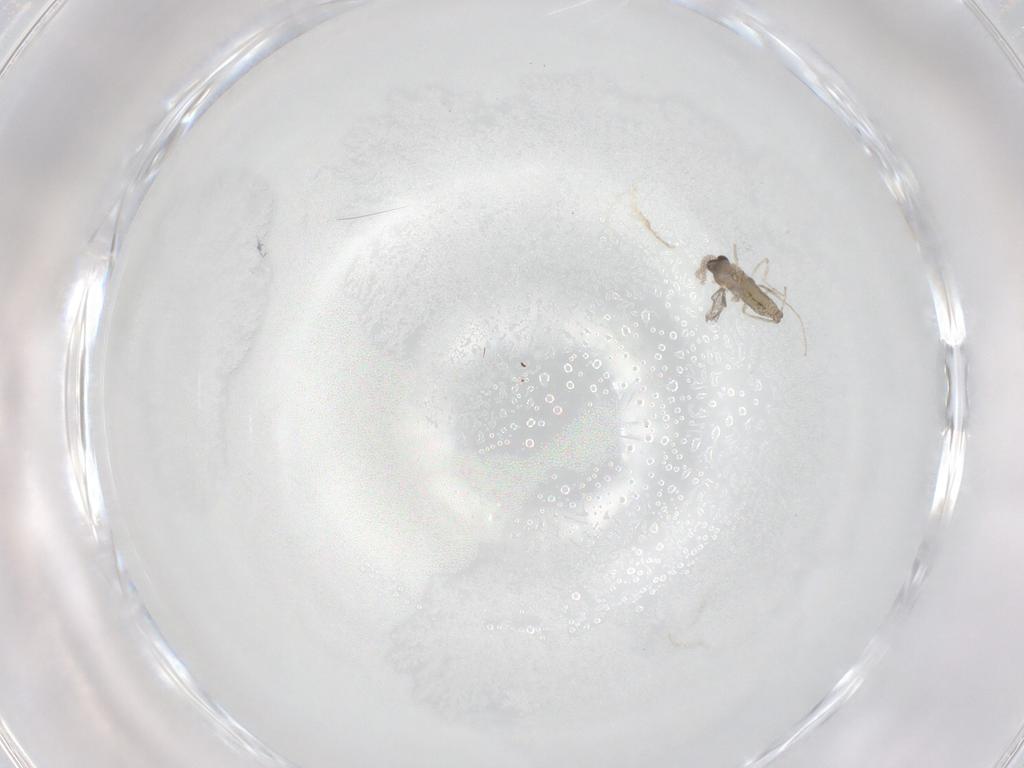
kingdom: Animalia
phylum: Arthropoda
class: Insecta
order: Diptera
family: Cecidomyiidae
